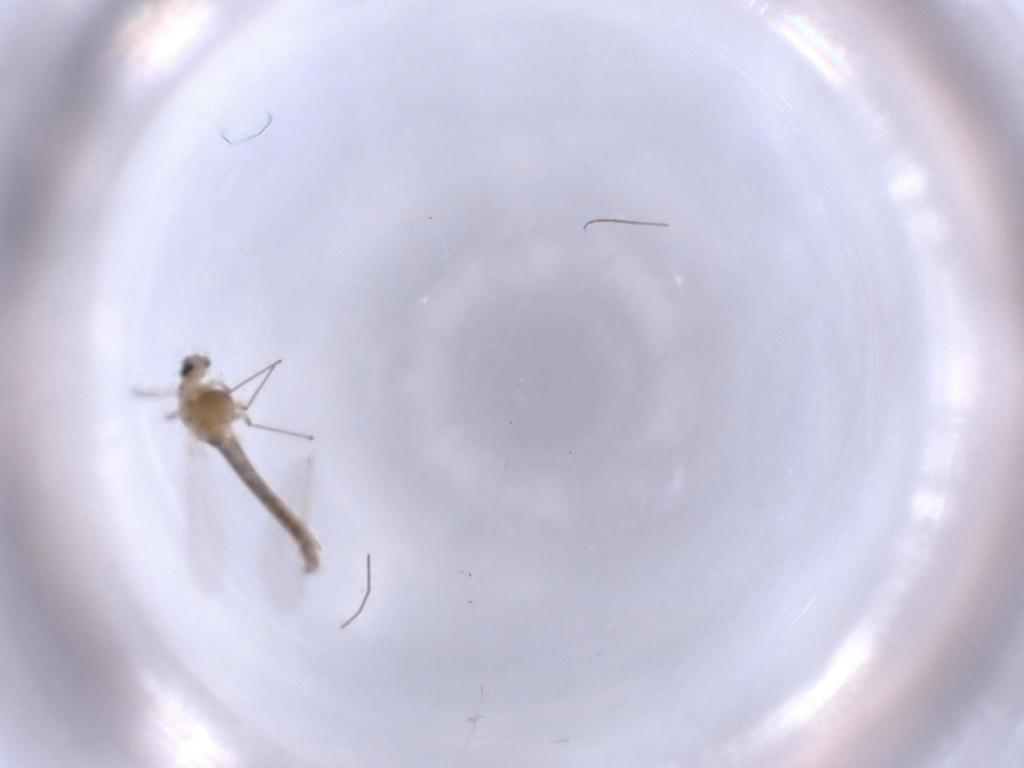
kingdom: Animalia
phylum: Arthropoda
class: Insecta
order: Diptera
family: Chironomidae
